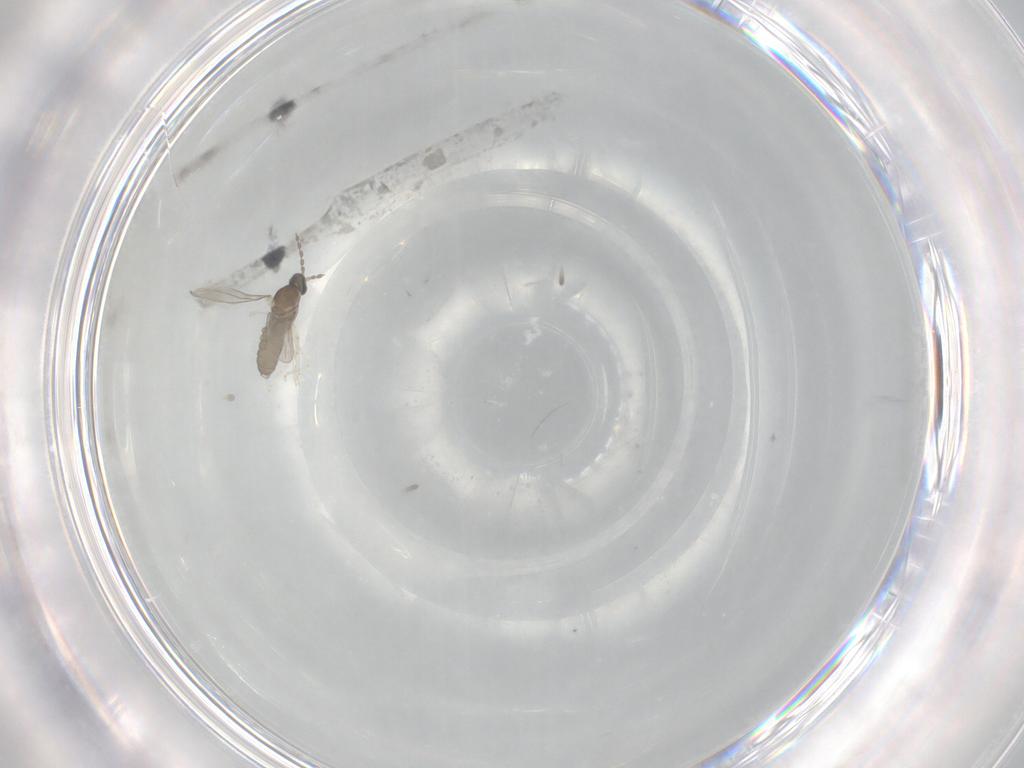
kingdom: Animalia
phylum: Arthropoda
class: Insecta
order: Diptera
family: Cecidomyiidae
